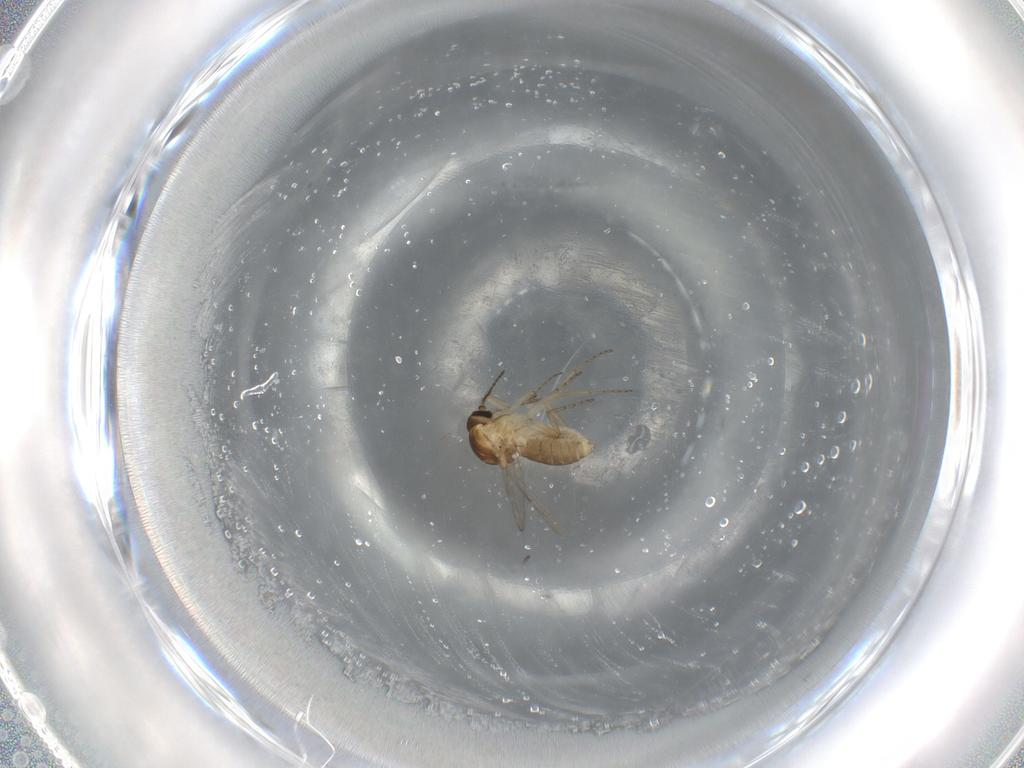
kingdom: Animalia
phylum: Arthropoda
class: Insecta
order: Diptera
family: Ceratopogonidae
